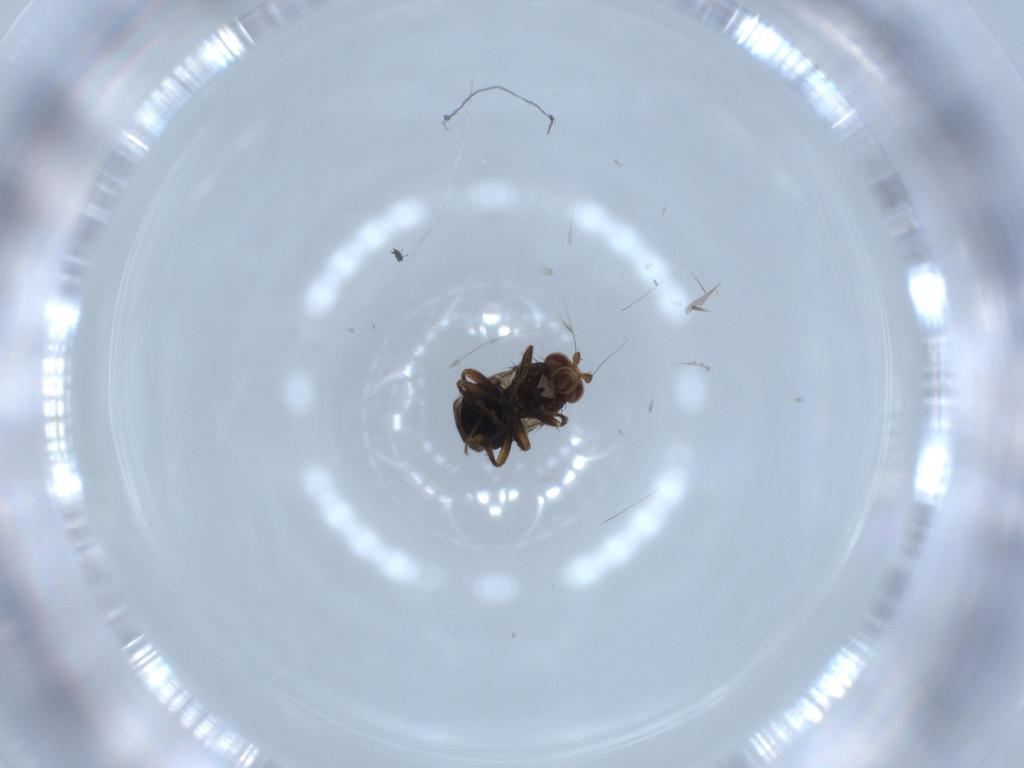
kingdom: Animalia
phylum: Arthropoda
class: Insecta
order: Diptera
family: Sphaeroceridae
